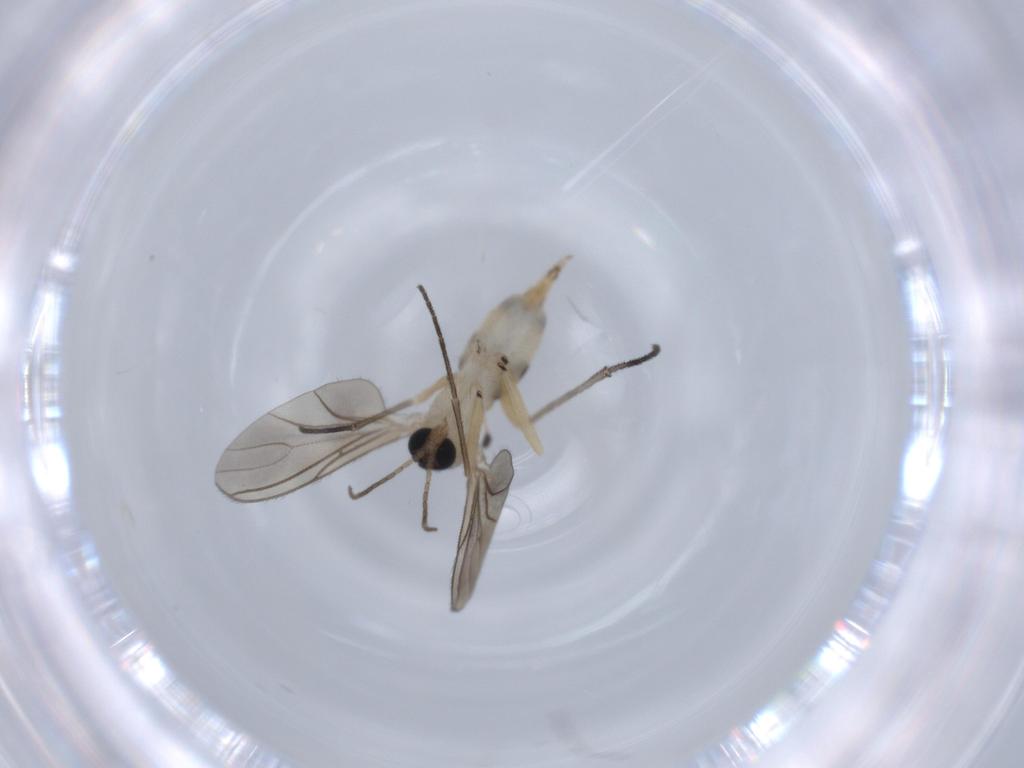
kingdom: Animalia
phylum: Arthropoda
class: Insecta
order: Diptera
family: Sciaridae
